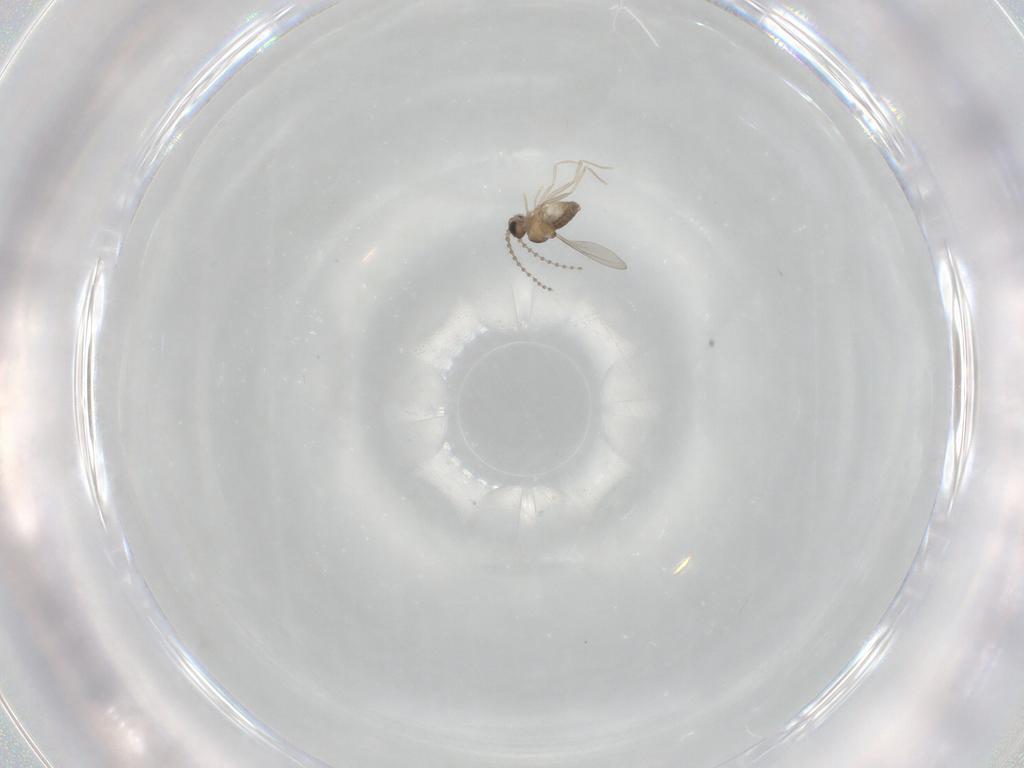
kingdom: Animalia
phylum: Arthropoda
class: Insecta
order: Diptera
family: Cecidomyiidae
